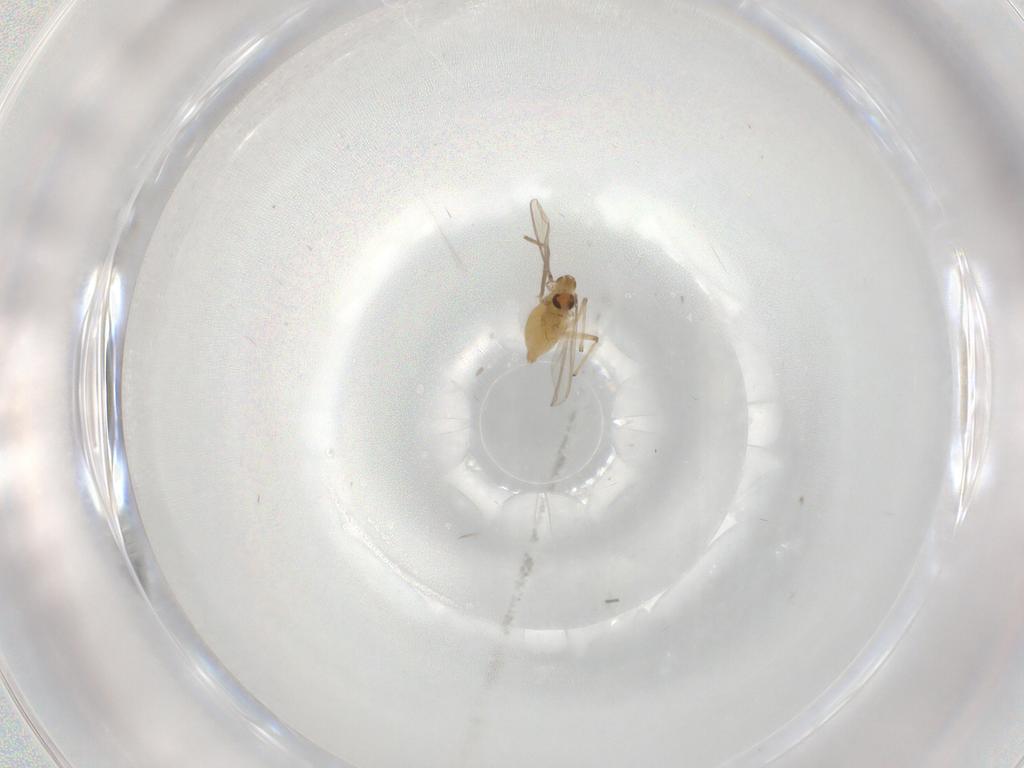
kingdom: Animalia
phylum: Arthropoda
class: Insecta
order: Diptera
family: Chironomidae
